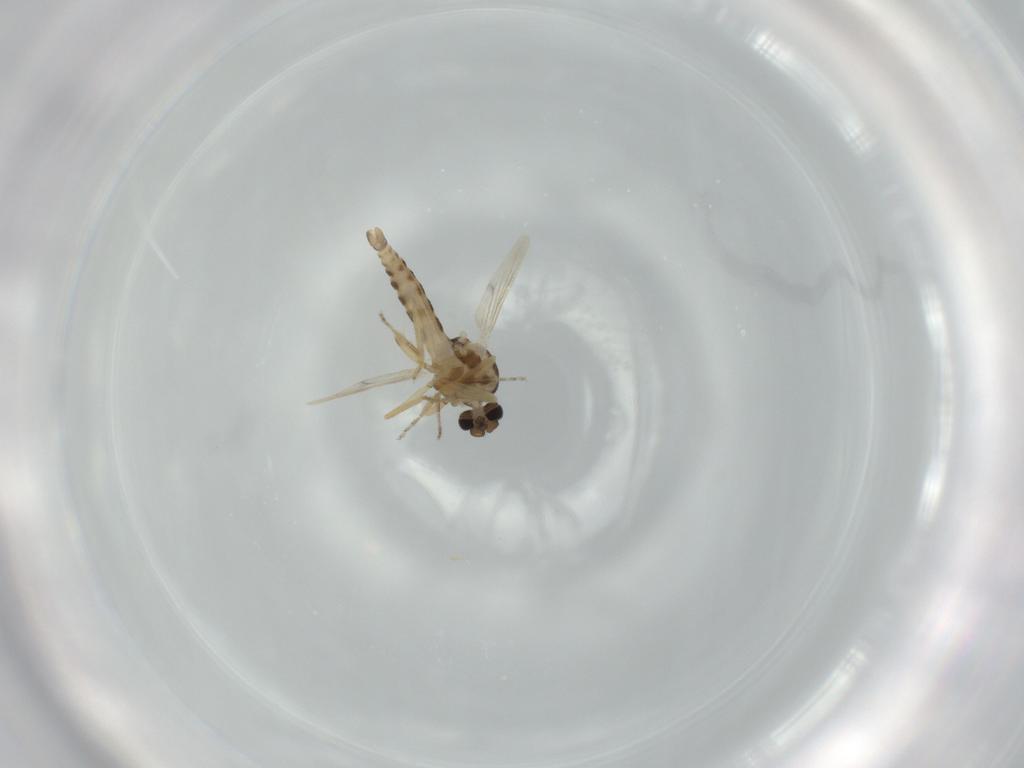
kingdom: Animalia
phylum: Arthropoda
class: Insecta
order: Diptera
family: Ceratopogonidae
